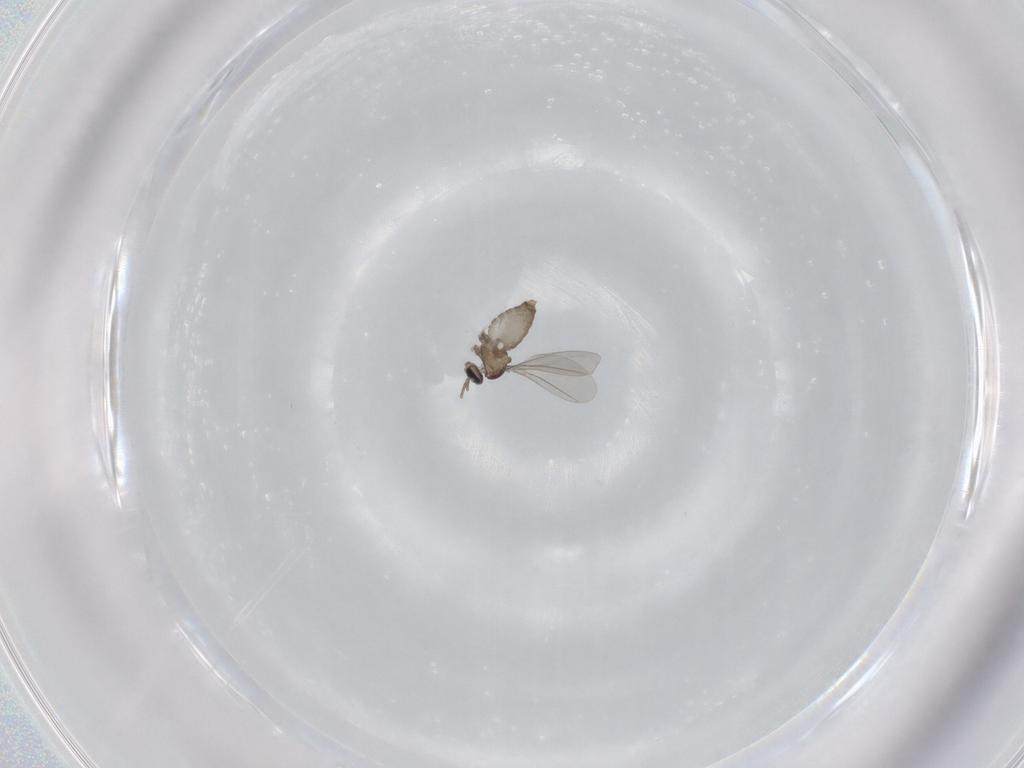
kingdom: Animalia
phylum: Arthropoda
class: Insecta
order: Diptera
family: Cecidomyiidae
